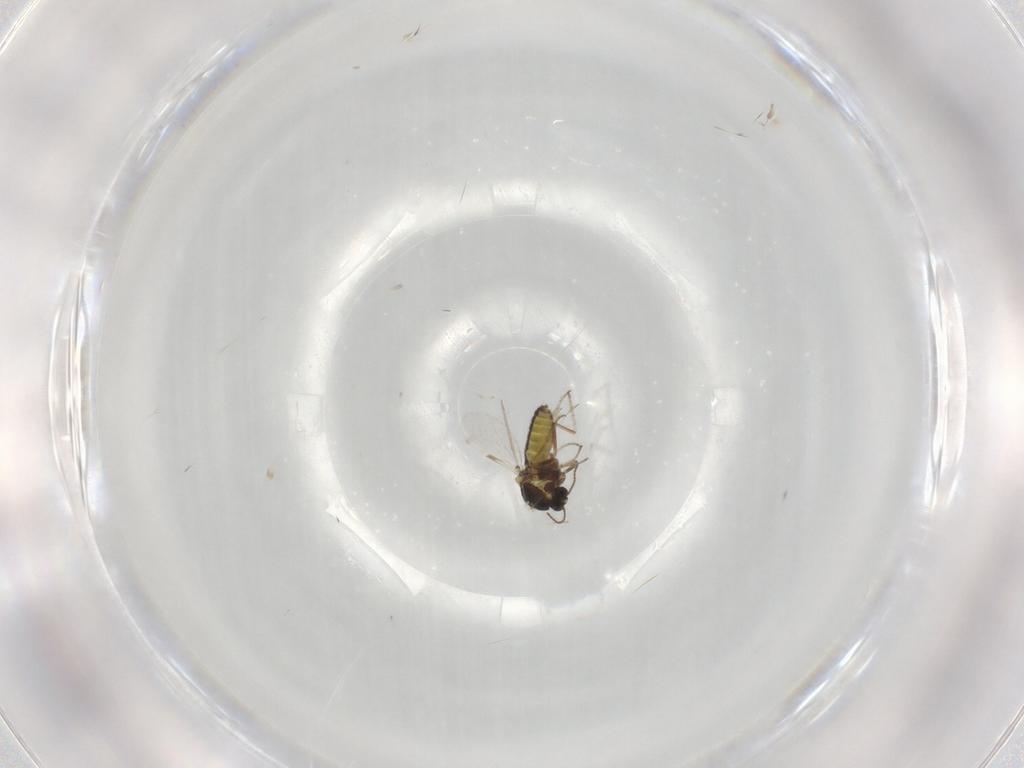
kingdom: Animalia
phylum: Arthropoda
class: Insecta
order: Diptera
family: Ceratopogonidae
